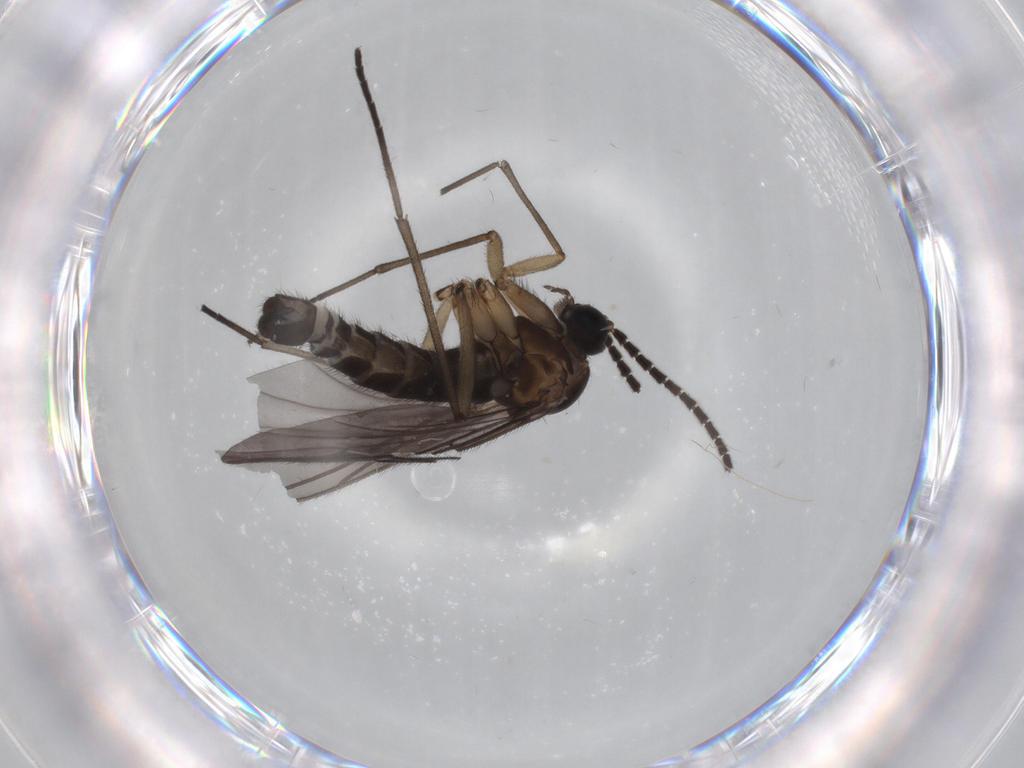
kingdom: Animalia
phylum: Arthropoda
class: Insecta
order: Diptera
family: Sciaridae
